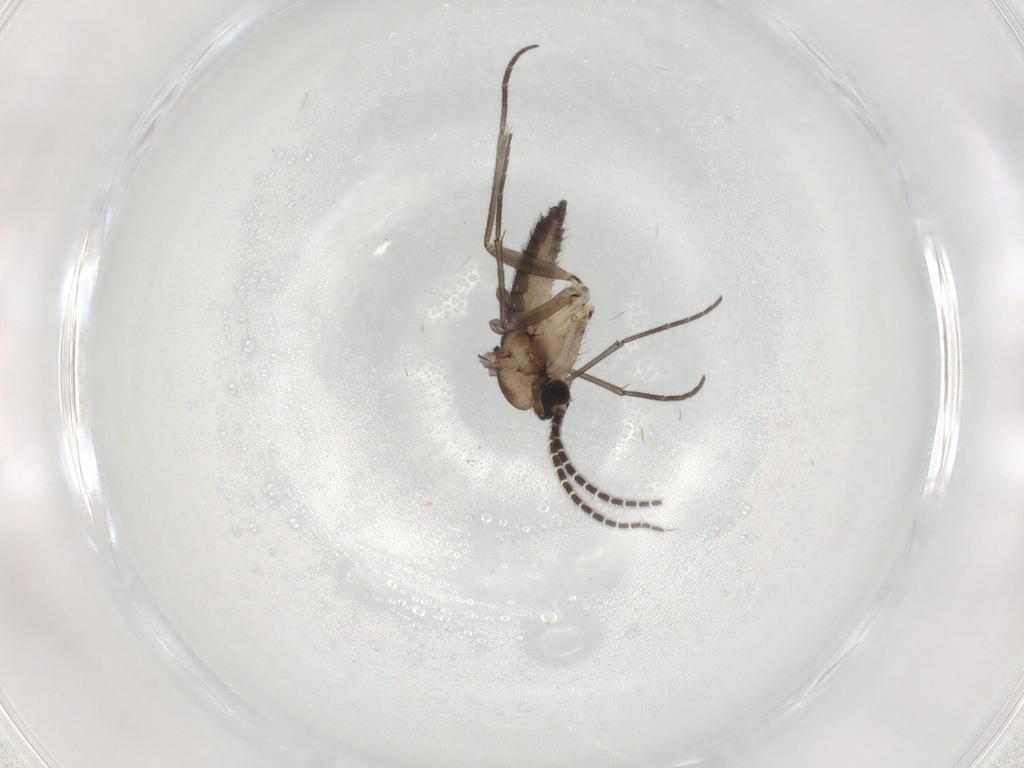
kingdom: Animalia
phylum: Arthropoda
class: Insecta
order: Diptera
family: Sciaridae
